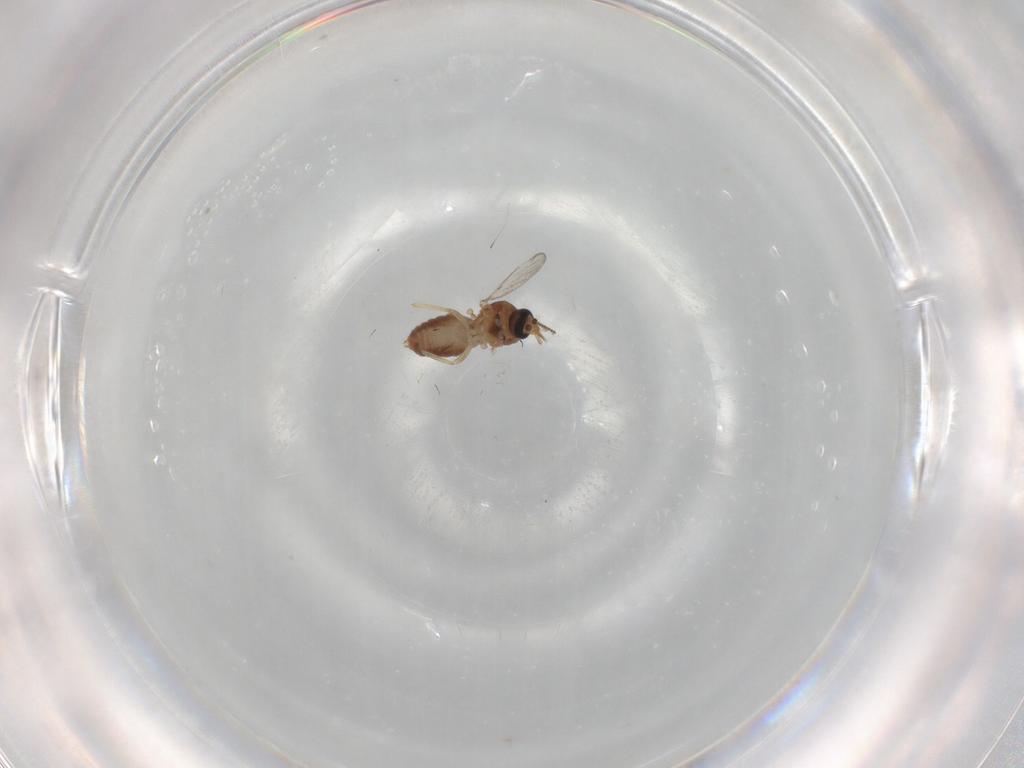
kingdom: Animalia
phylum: Arthropoda
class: Insecta
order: Diptera
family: Ceratopogonidae
